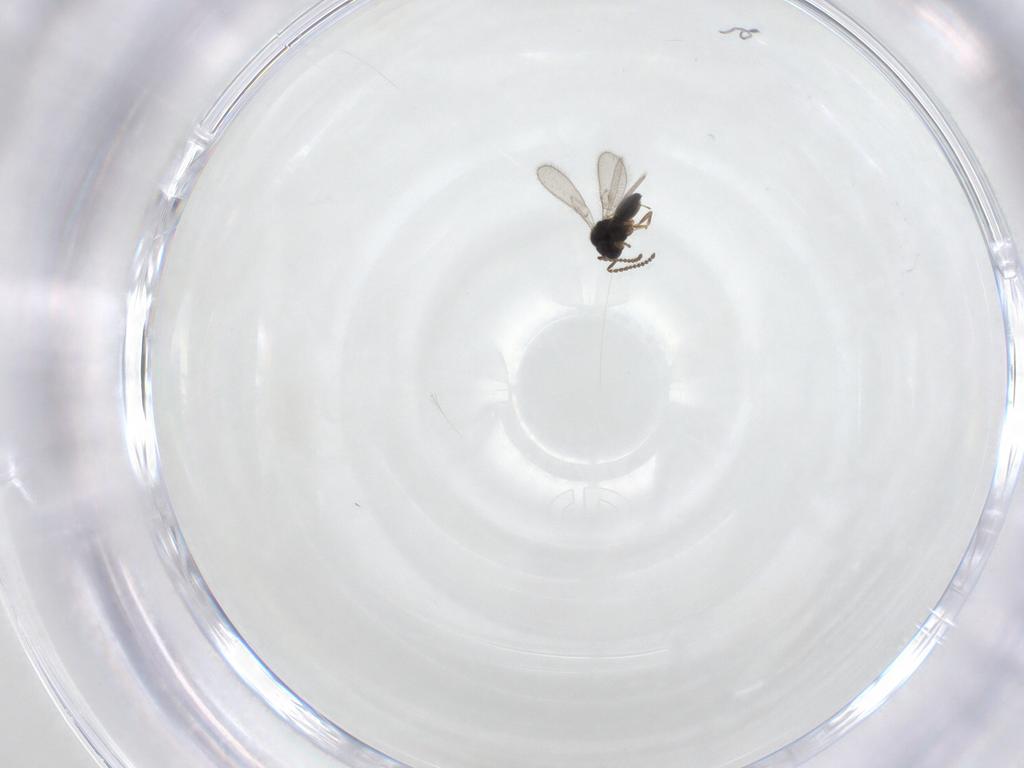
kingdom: Animalia
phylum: Arthropoda
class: Insecta
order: Hymenoptera
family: Scelionidae
